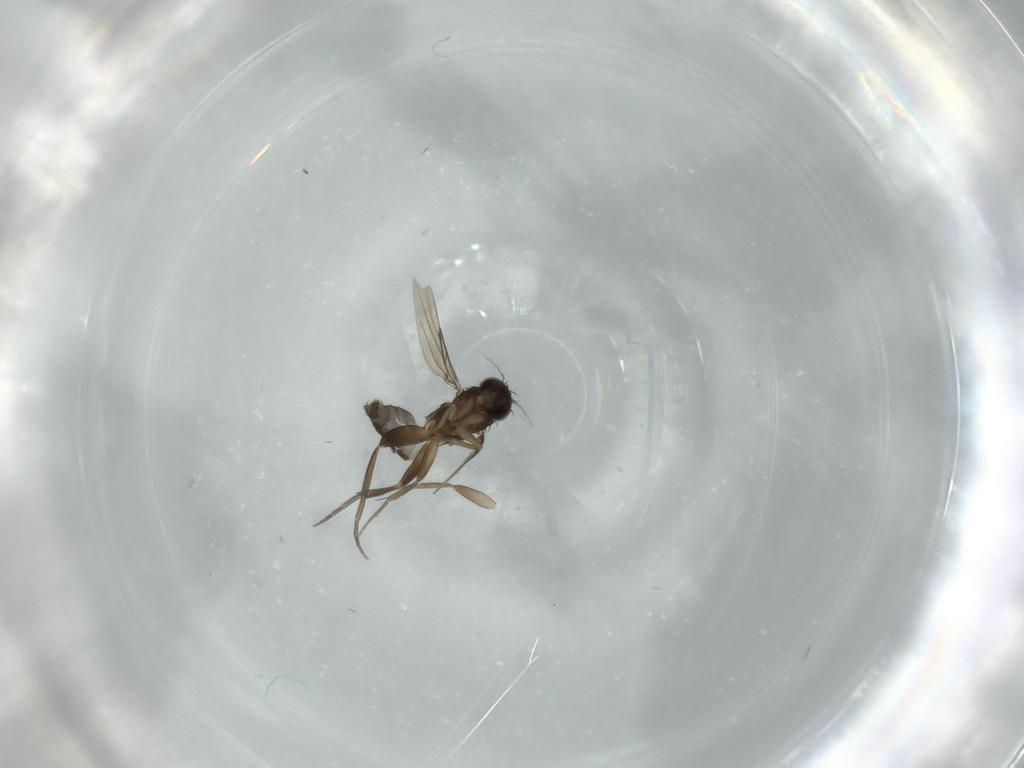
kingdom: Animalia
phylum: Arthropoda
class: Insecta
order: Diptera
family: Phoridae
